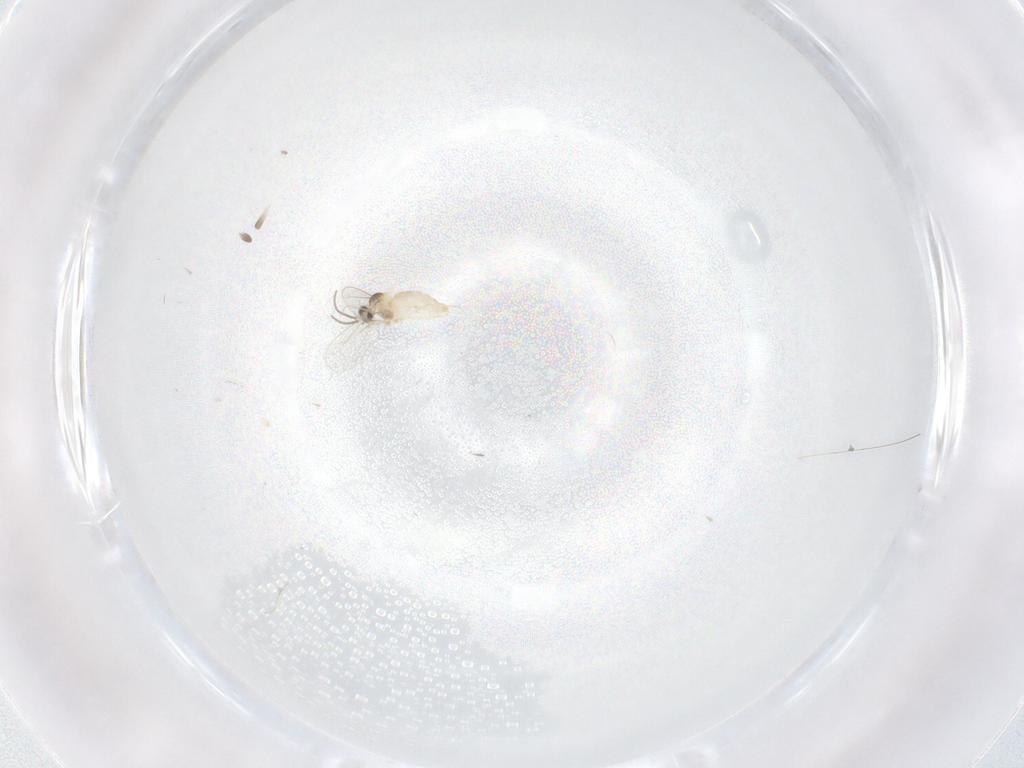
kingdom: Animalia
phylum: Arthropoda
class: Insecta
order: Diptera
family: Cecidomyiidae
